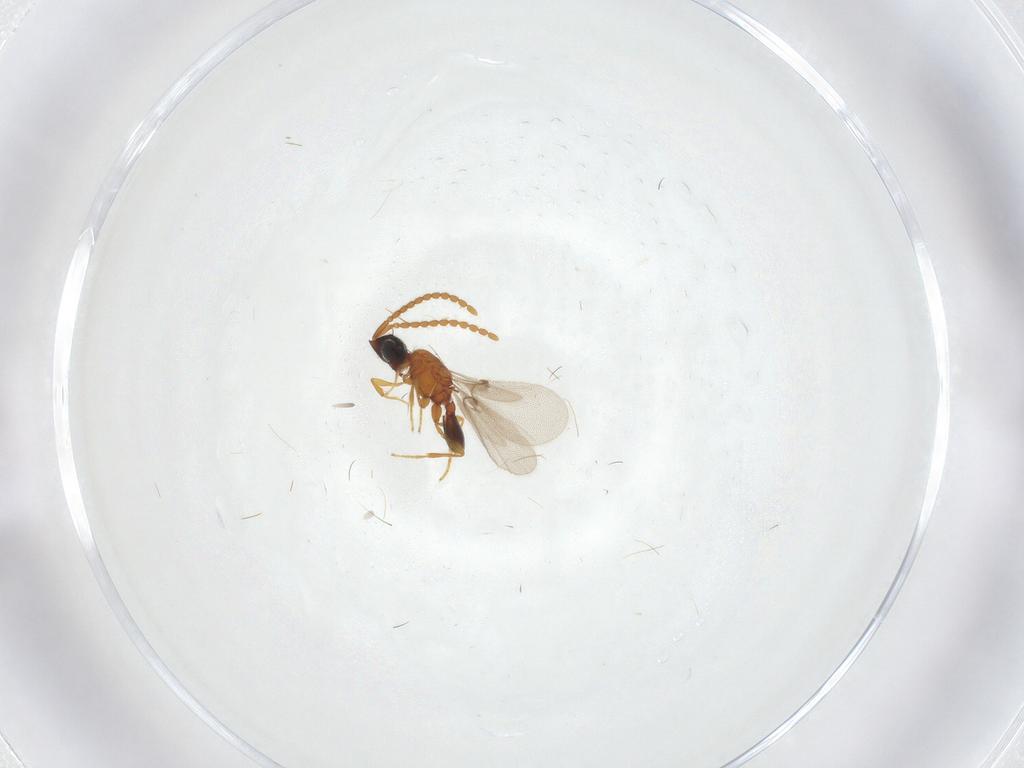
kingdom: Animalia
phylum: Arthropoda
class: Insecta
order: Hymenoptera
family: Diapriidae
